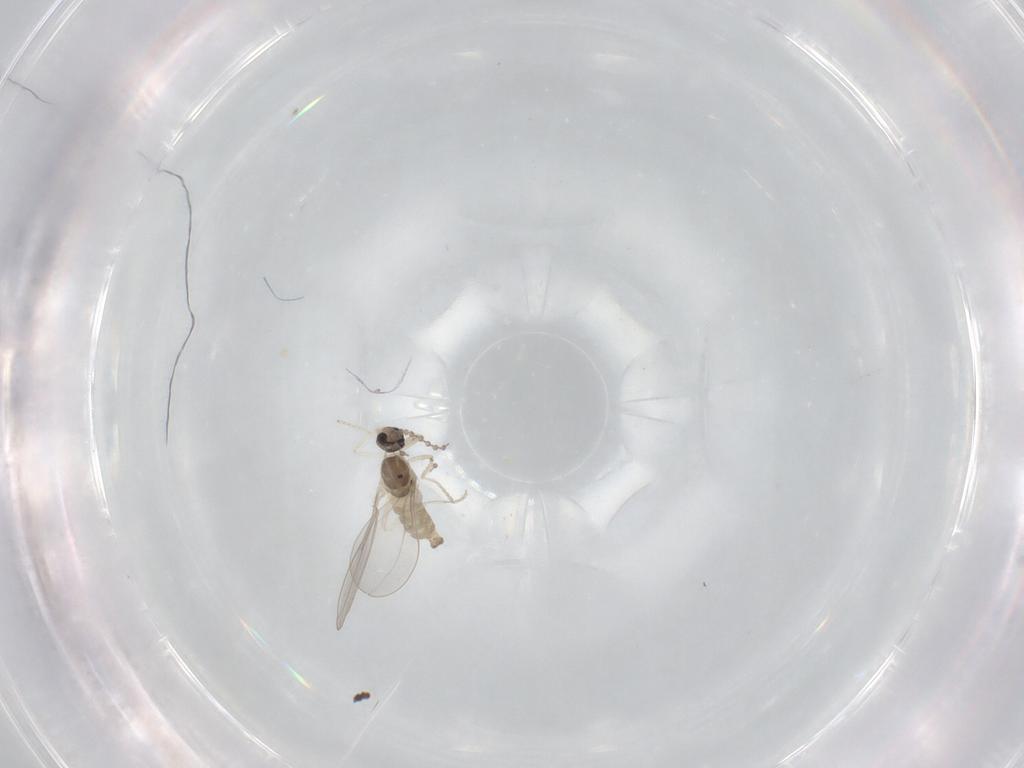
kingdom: Animalia
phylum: Arthropoda
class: Insecta
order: Diptera
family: Cecidomyiidae
